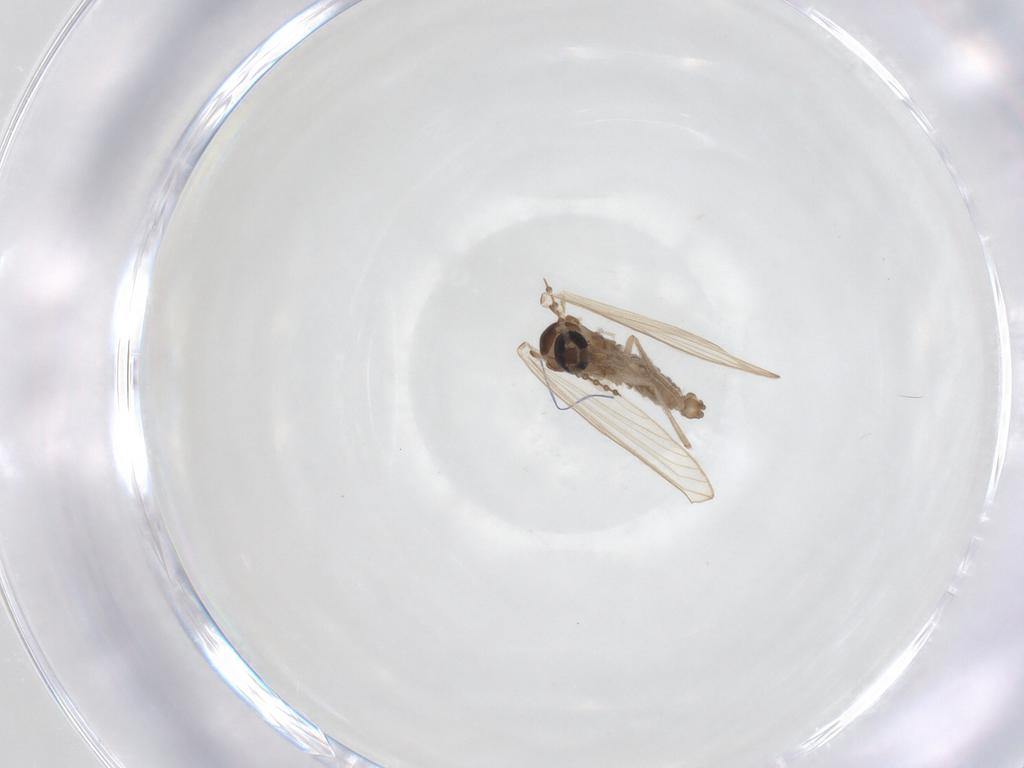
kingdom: Animalia
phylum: Arthropoda
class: Insecta
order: Diptera
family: Psychodidae
